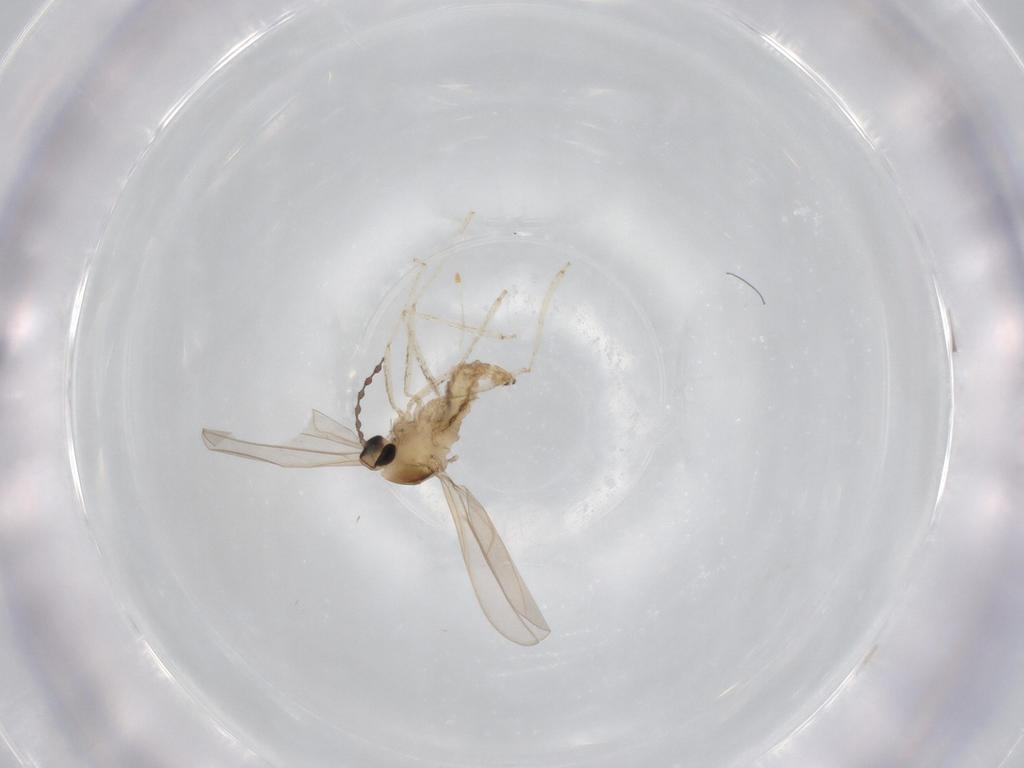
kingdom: Animalia
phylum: Arthropoda
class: Insecta
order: Diptera
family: Cecidomyiidae
